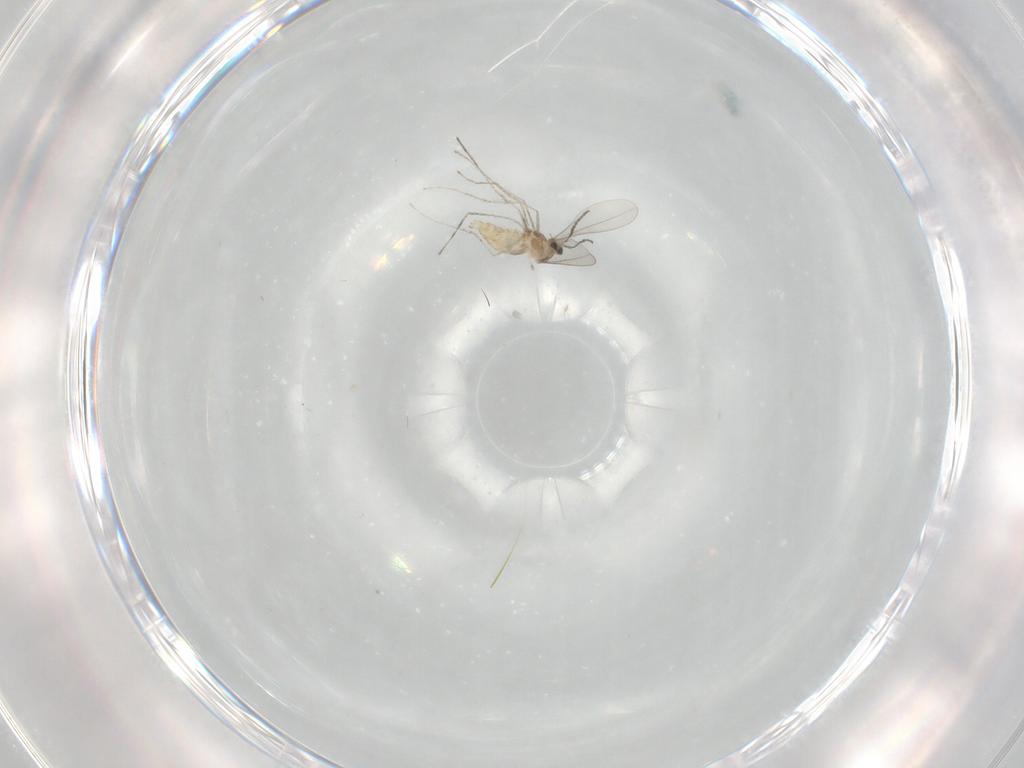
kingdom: Animalia
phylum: Arthropoda
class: Insecta
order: Diptera
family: Cecidomyiidae
